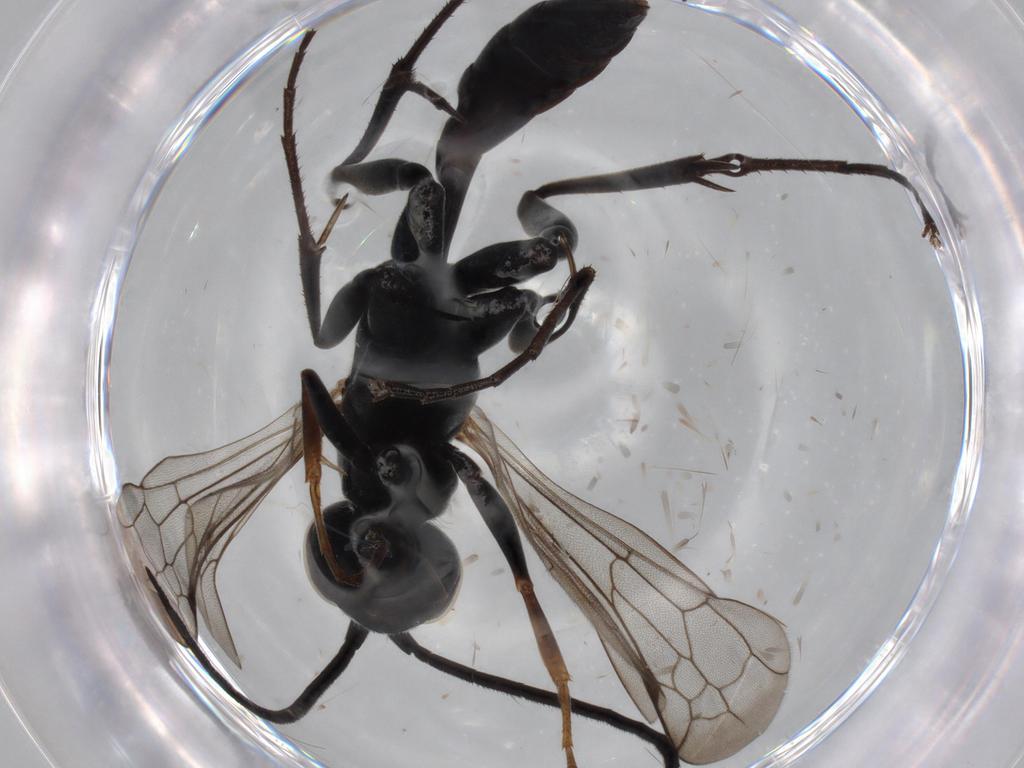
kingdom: Animalia
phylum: Arthropoda
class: Insecta
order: Hymenoptera
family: Pompilidae
